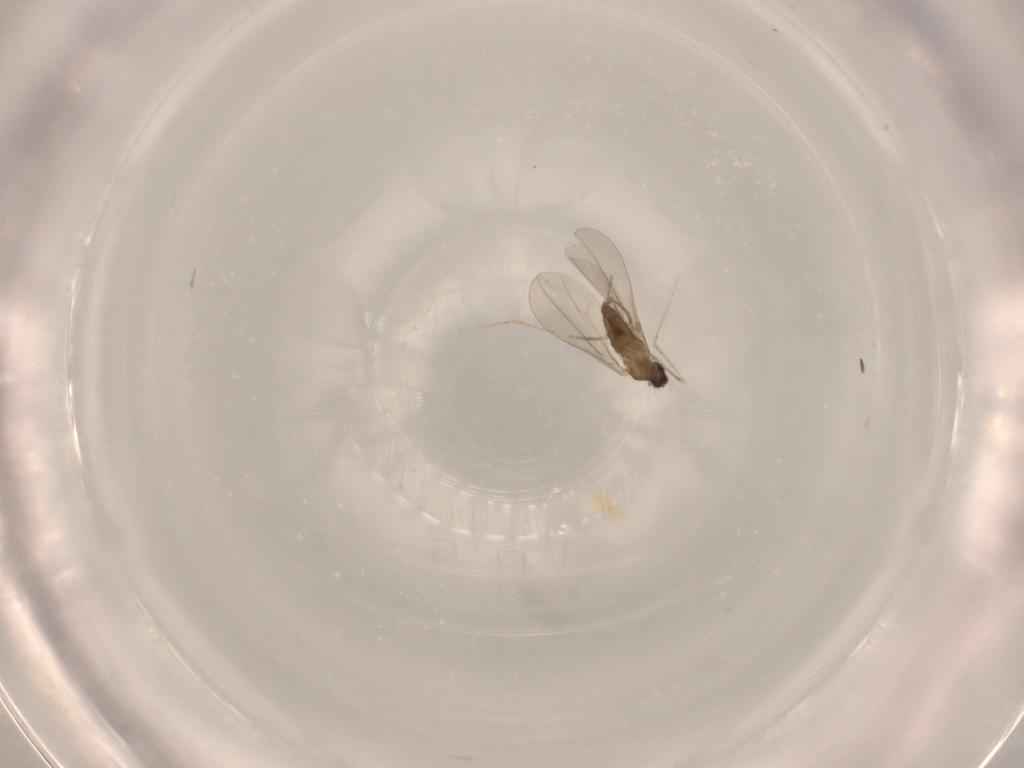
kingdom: Animalia
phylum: Arthropoda
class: Insecta
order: Diptera
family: Cecidomyiidae
